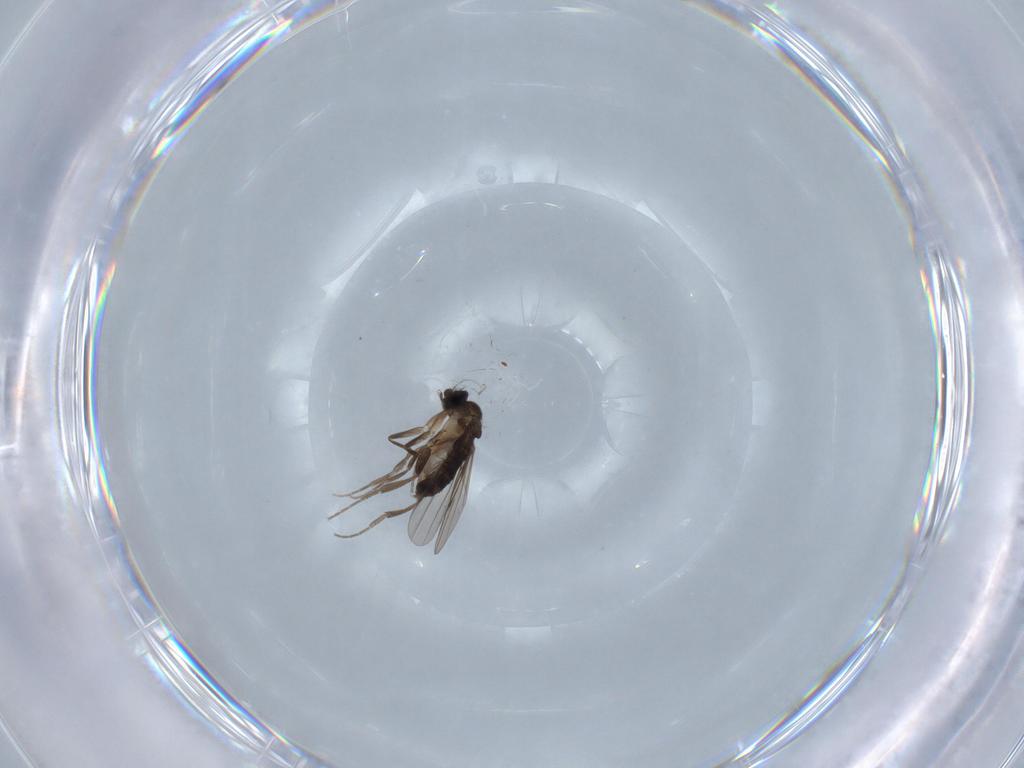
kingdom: Animalia
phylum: Arthropoda
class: Insecta
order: Diptera
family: Phoridae
